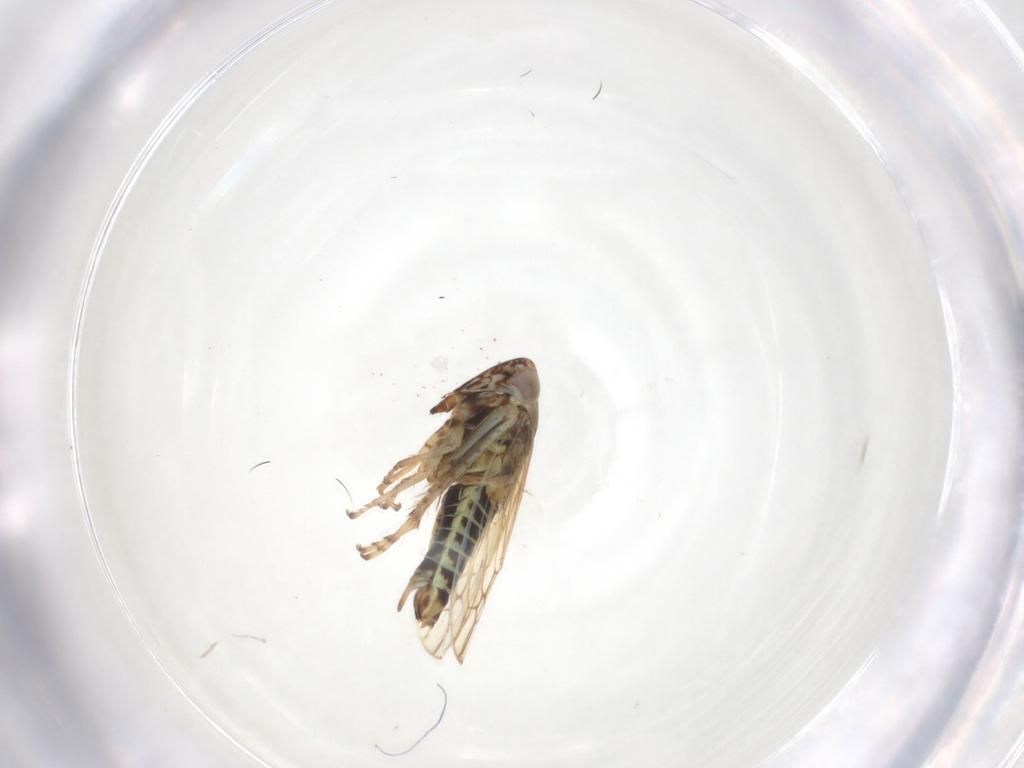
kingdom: Animalia
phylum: Arthropoda
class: Insecta
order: Hemiptera
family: Cicadellidae
